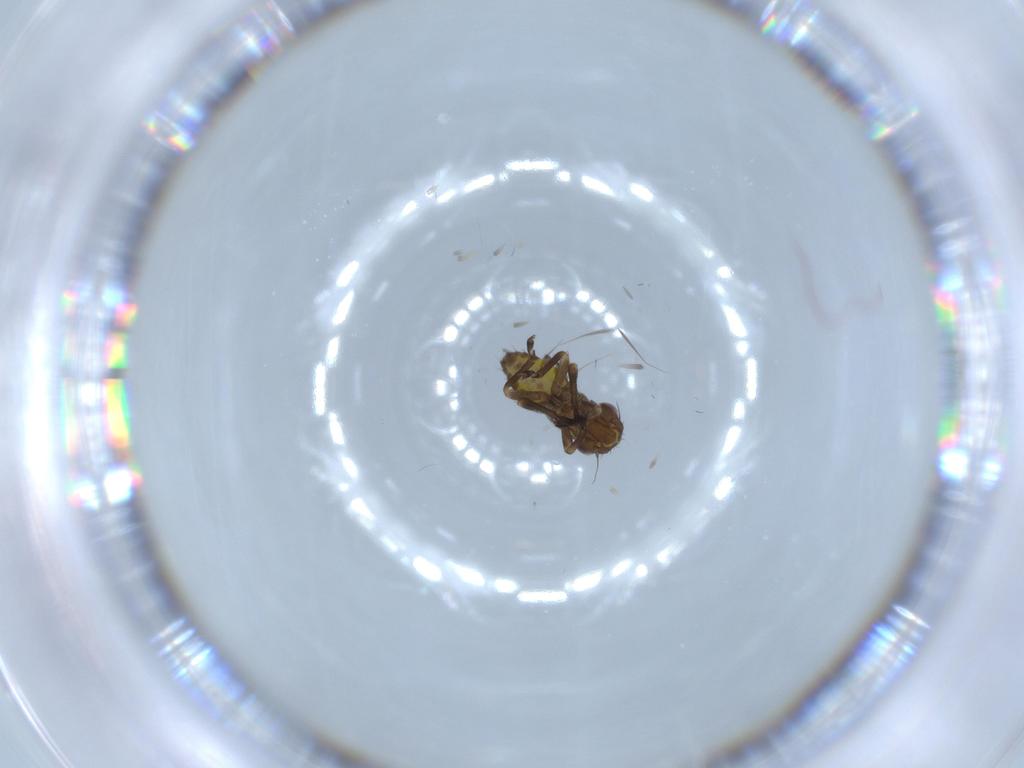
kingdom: Animalia
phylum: Arthropoda
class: Insecta
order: Hemiptera
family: Cicadellidae
